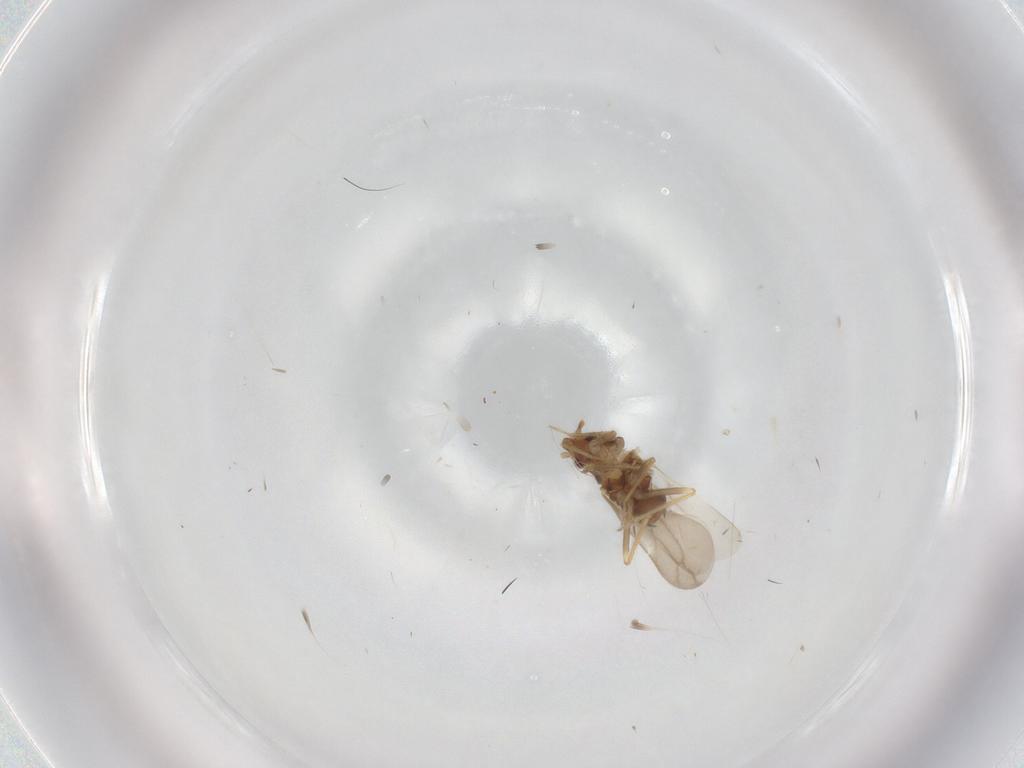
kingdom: Animalia
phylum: Arthropoda
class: Insecta
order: Hemiptera
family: Ceratocombidae
